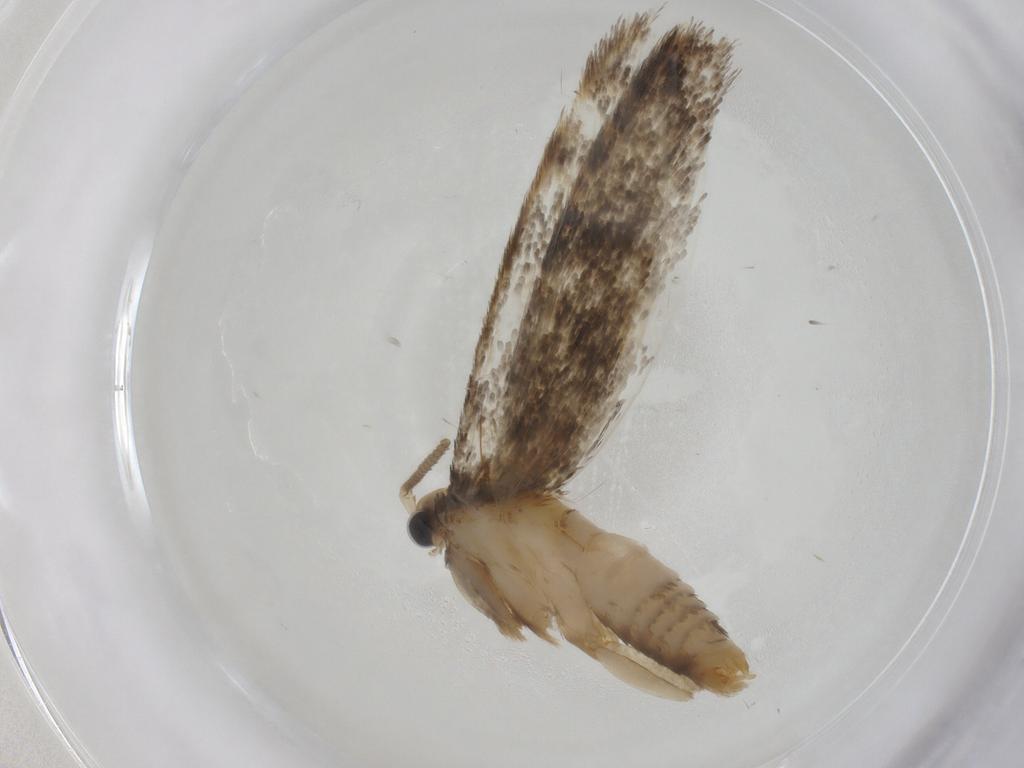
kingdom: Animalia
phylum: Arthropoda
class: Insecta
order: Lepidoptera
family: Tineidae
